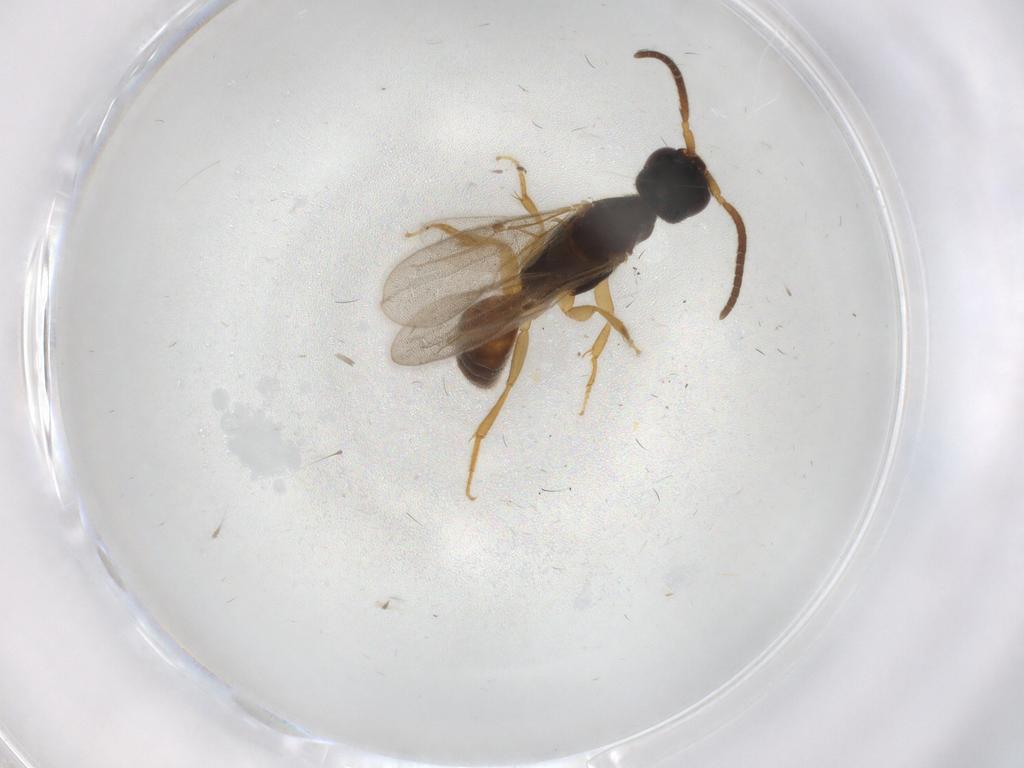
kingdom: Animalia
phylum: Arthropoda
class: Insecta
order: Hymenoptera
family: Bethylidae
